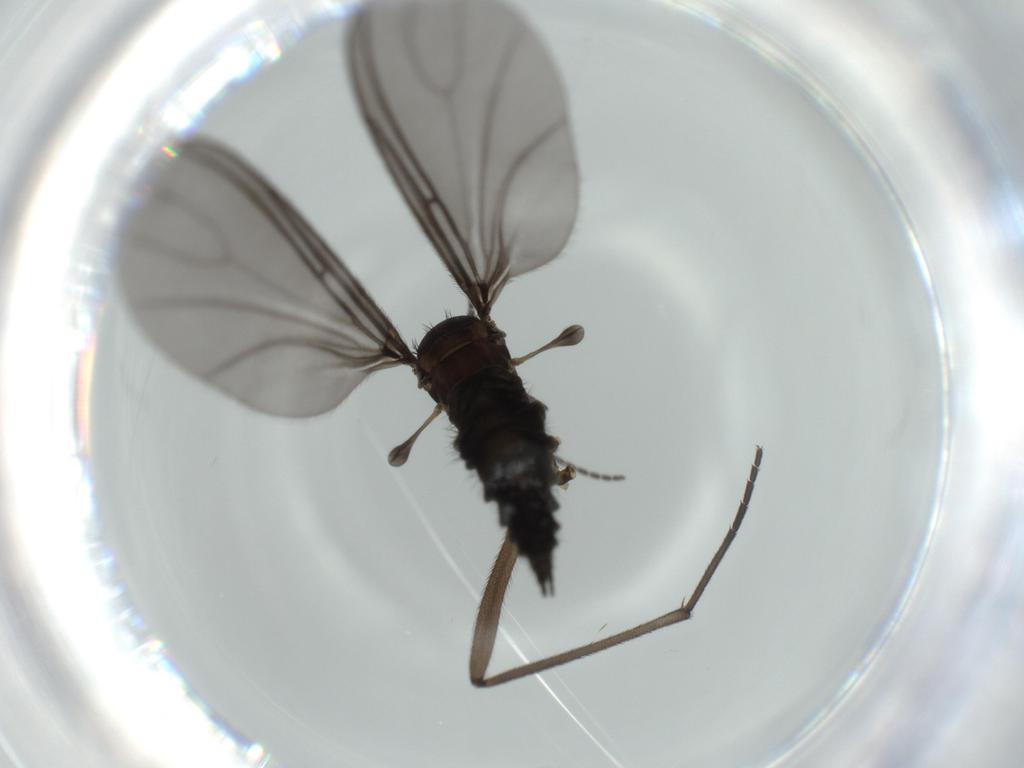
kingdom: Animalia
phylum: Arthropoda
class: Insecta
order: Diptera
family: Sciaridae
